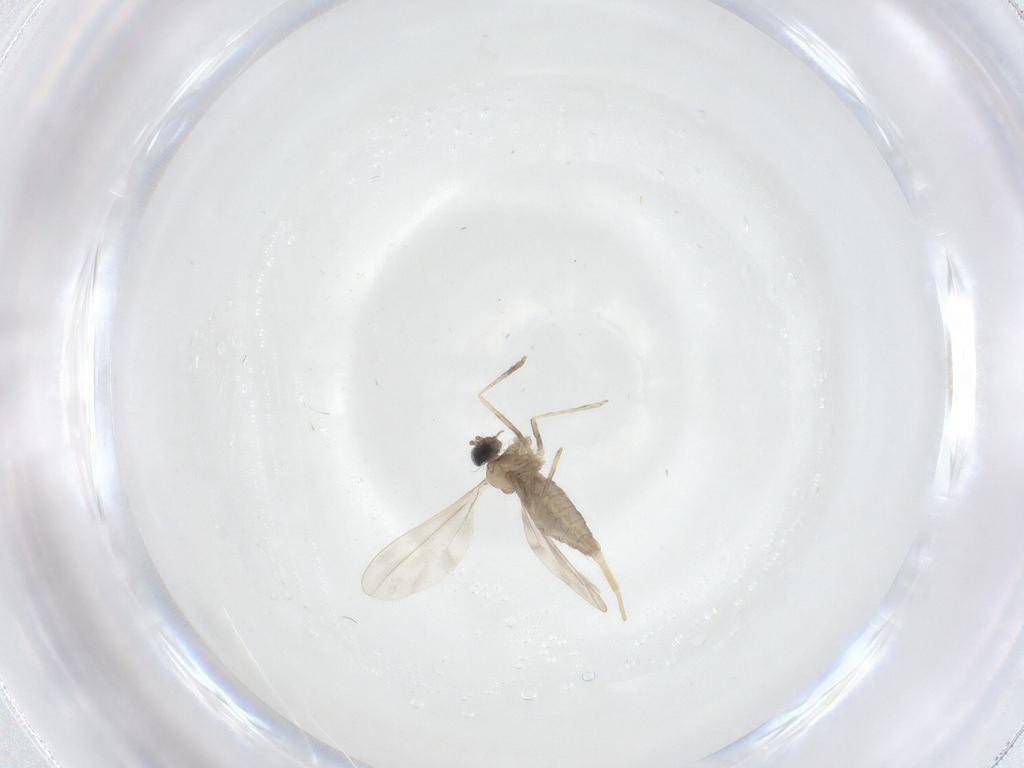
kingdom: Animalia
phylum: Arthropoda
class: Insecta
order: Diptera
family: Cecidomyiidae
